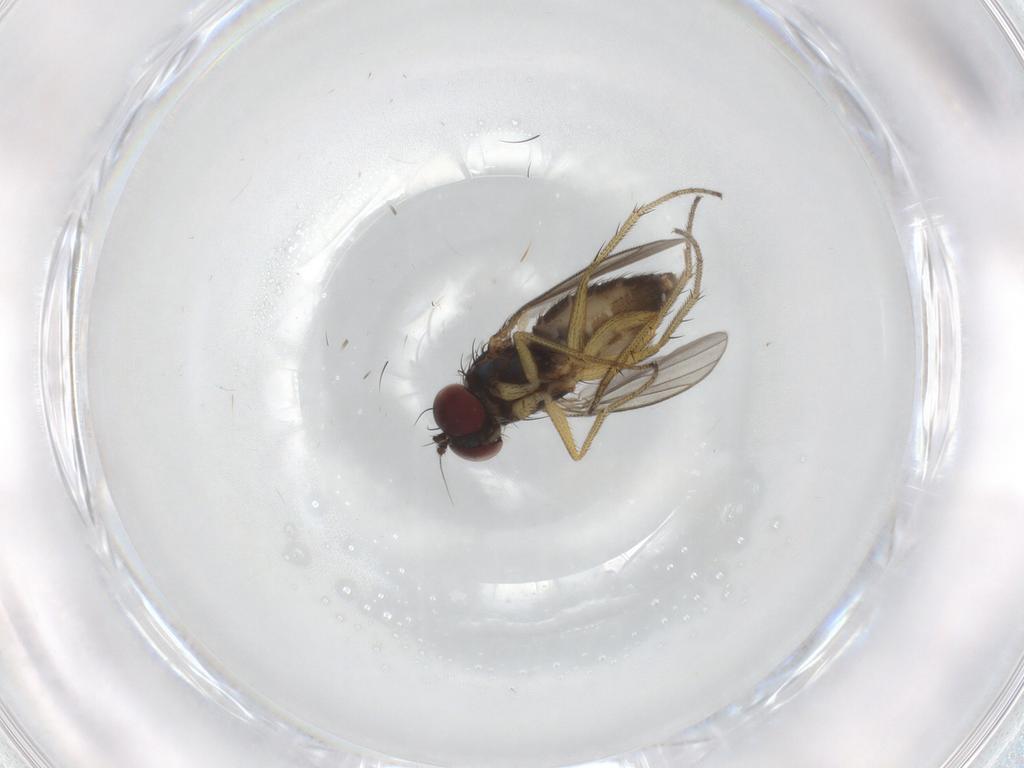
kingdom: Animalia
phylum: Arthropoda
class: Insecta
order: Diptera
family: Chironomidae
